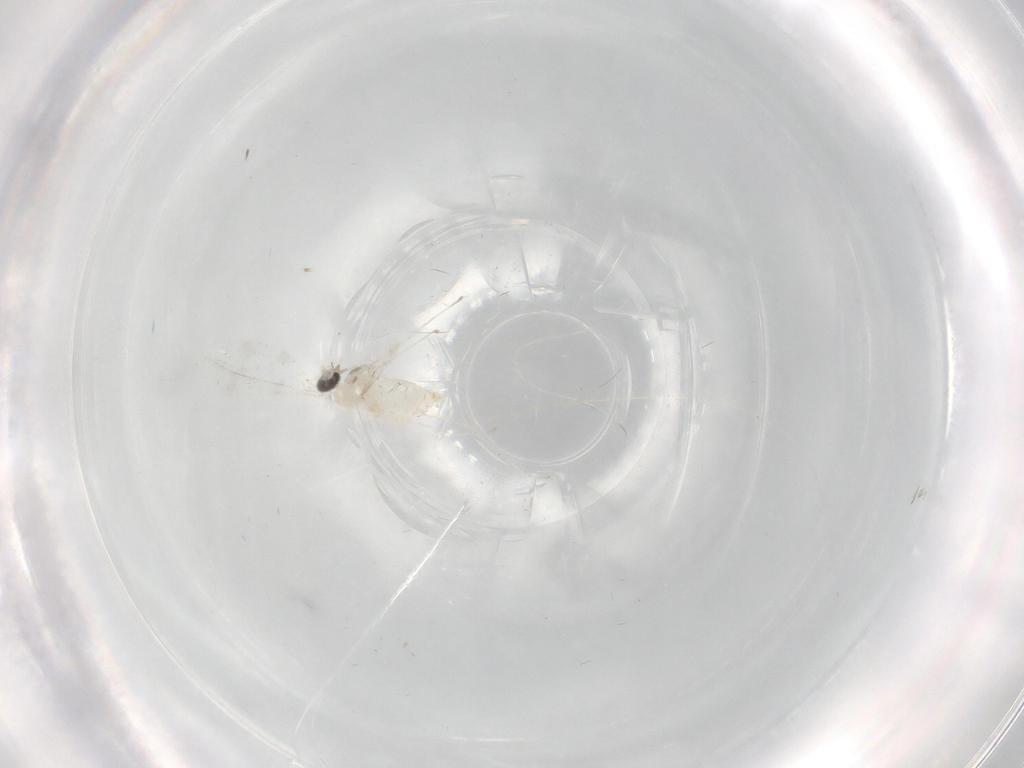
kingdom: Animalia
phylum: Arthropoda
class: Insecta
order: Diptera
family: Cecidomyiidae
